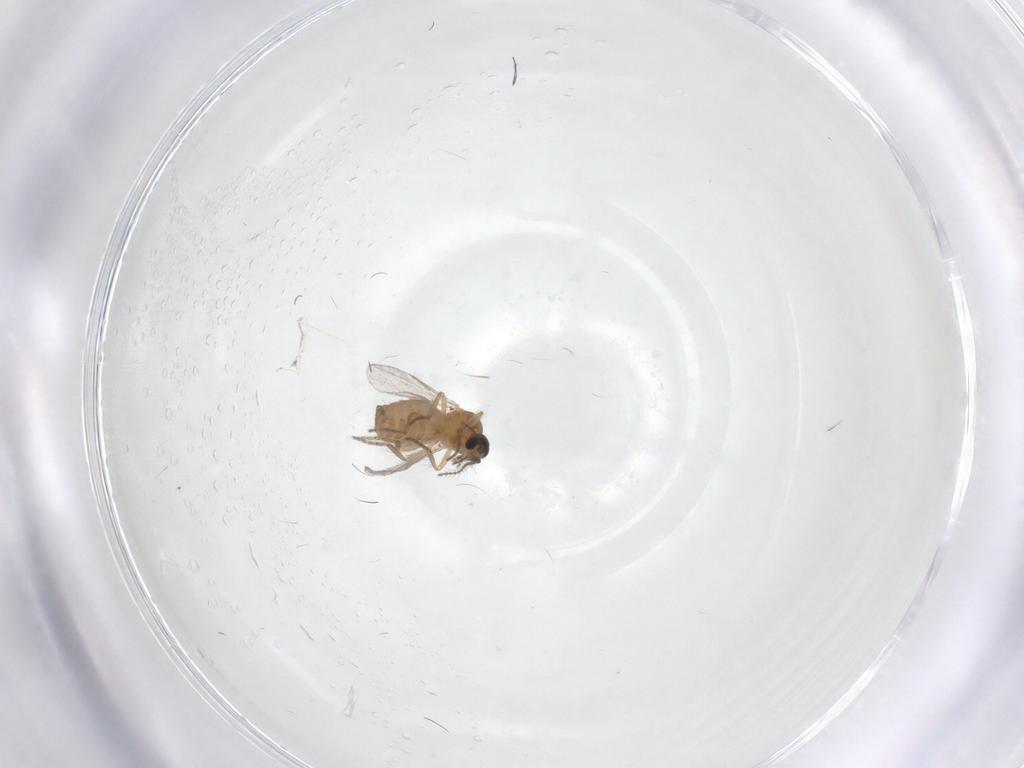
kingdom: Animalia
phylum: Arthropoda
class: Insecta
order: Diptera
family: Ceratopogonidae
